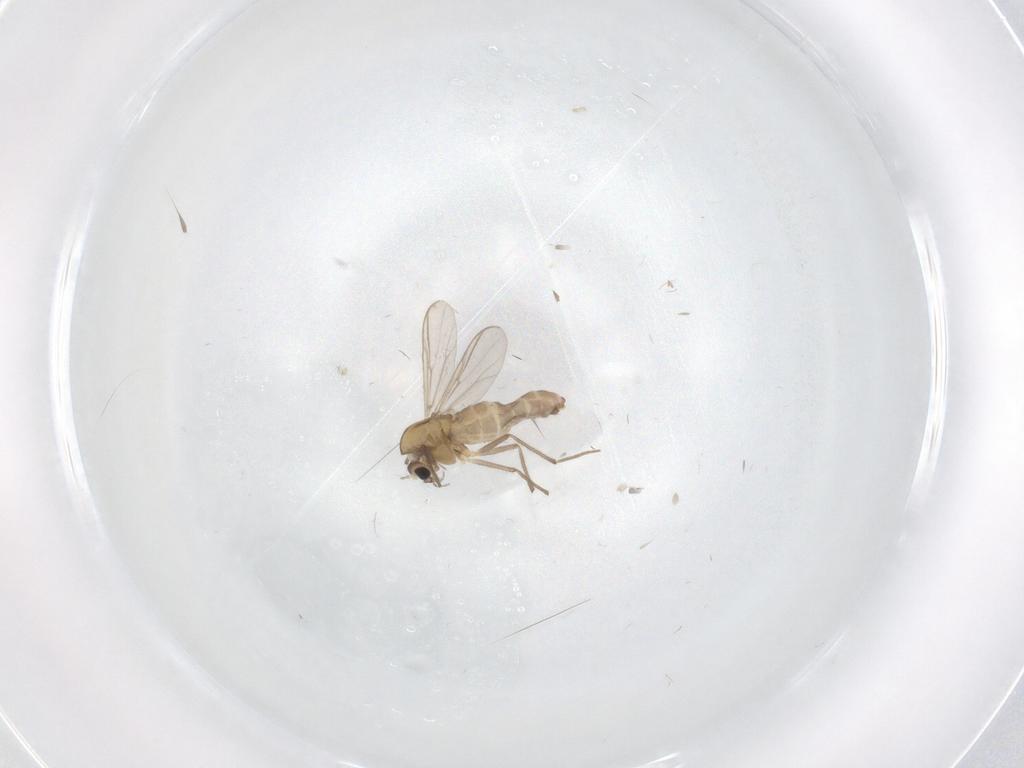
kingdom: Animalia
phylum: Arthropoda
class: Insecta
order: Diptera
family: Chironomidae
